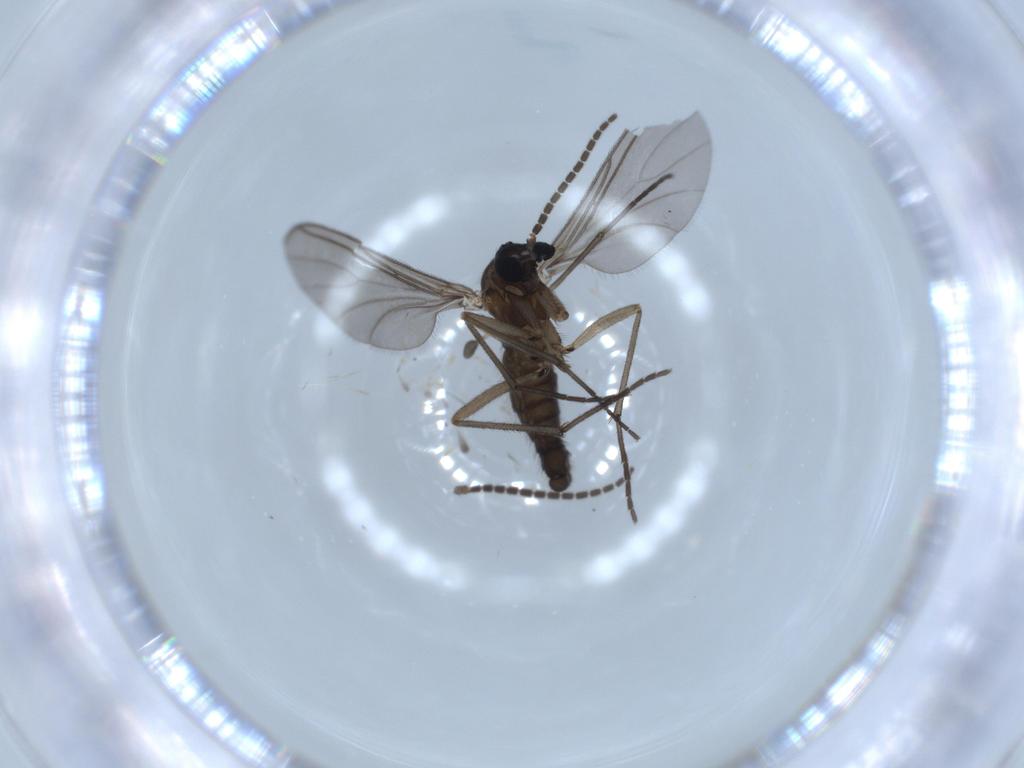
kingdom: Animalia
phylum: Arthropoda
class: Insecta
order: Diptera
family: Sciaridae
